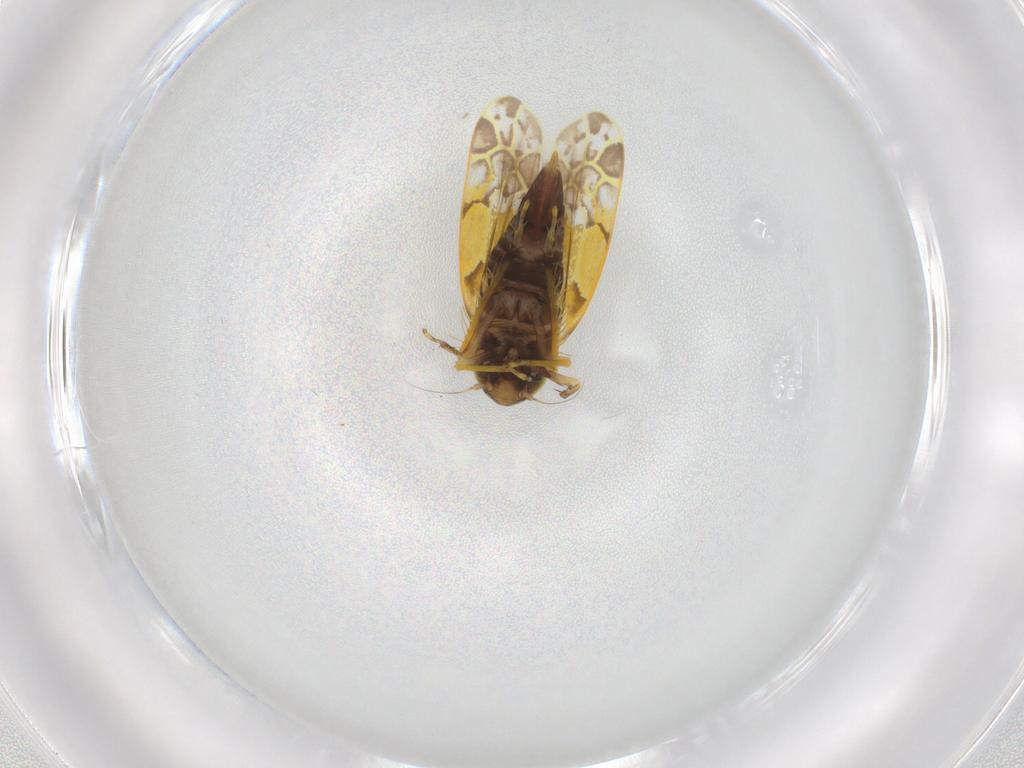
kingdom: Animalia
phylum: Arthropoda
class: Insecta
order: Hemiptera
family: Cicadellidae
